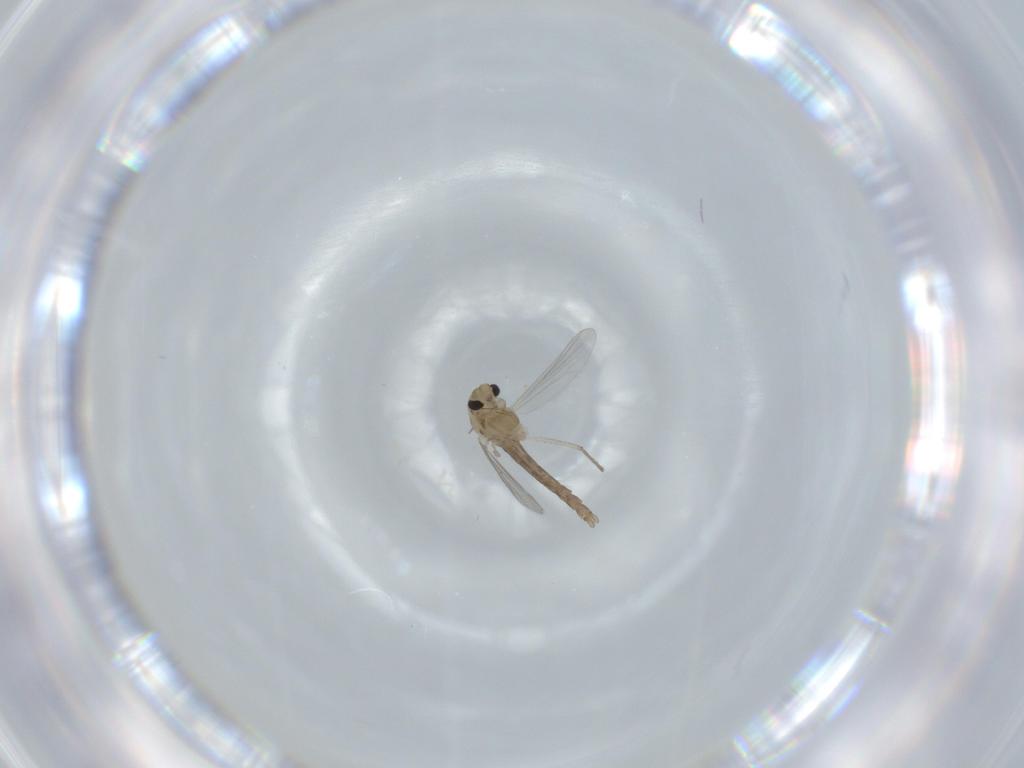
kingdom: Animalia
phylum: Arthropoda
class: Insecta
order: Diptera
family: Chironomidae
